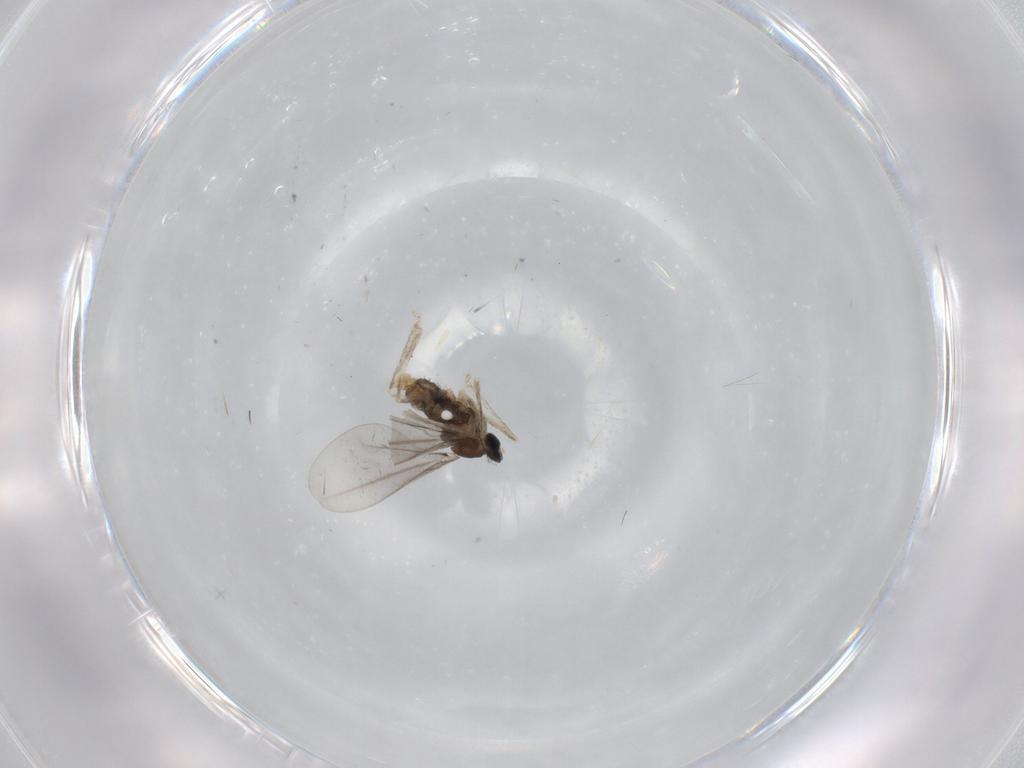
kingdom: Animalia
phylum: Arthropoda
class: Insecta
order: Diptera
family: Cecidomyiidae
